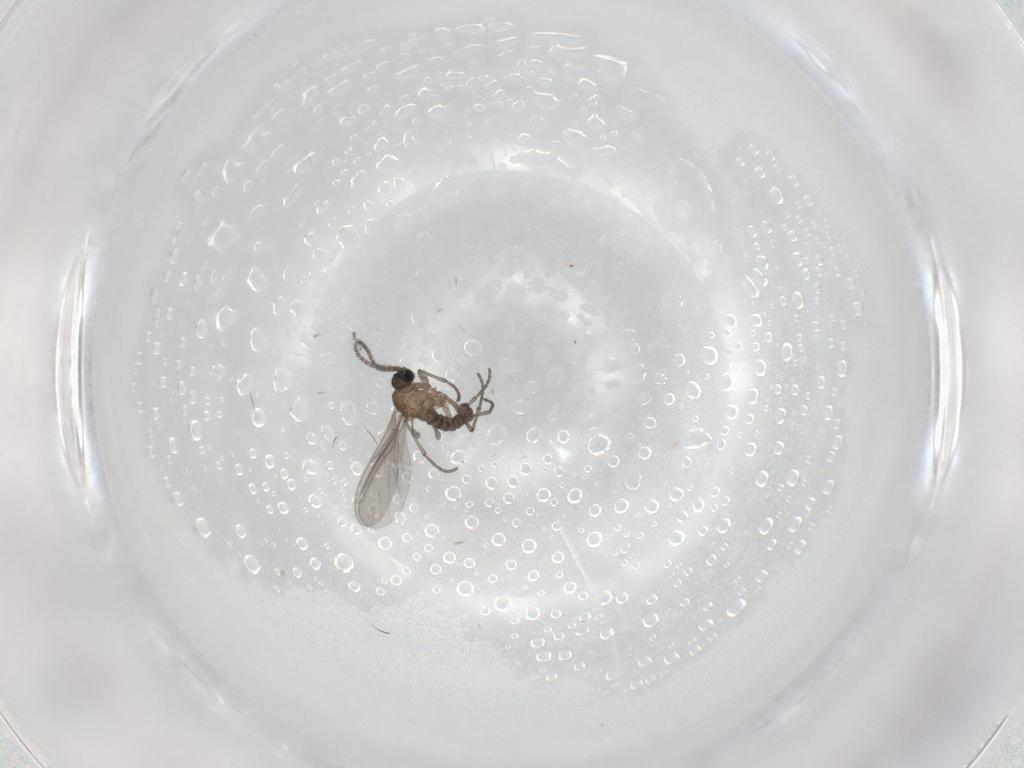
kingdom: Animalia
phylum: Arthropoda
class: Insecta
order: Diptera
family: Sciaridae
